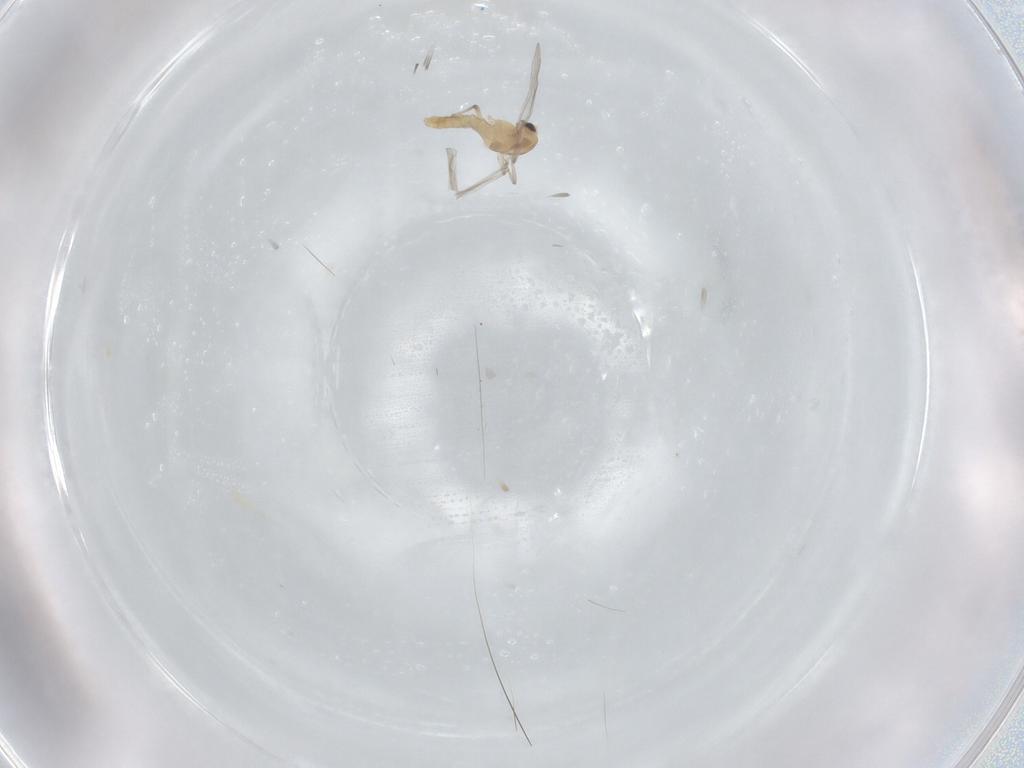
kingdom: Animalia
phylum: Arthropoda
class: Insecta
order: Diptera
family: Chironomidae
